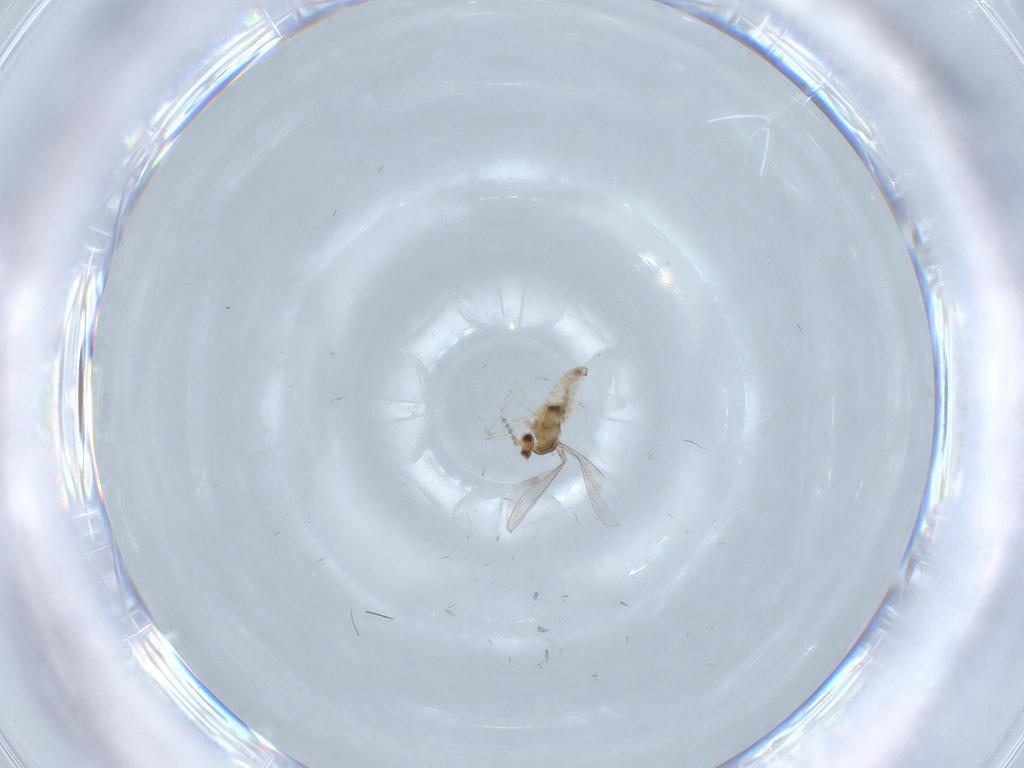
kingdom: Animalia
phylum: Arthropoda
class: Insecta
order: Diptera
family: Cecidomyiidae
